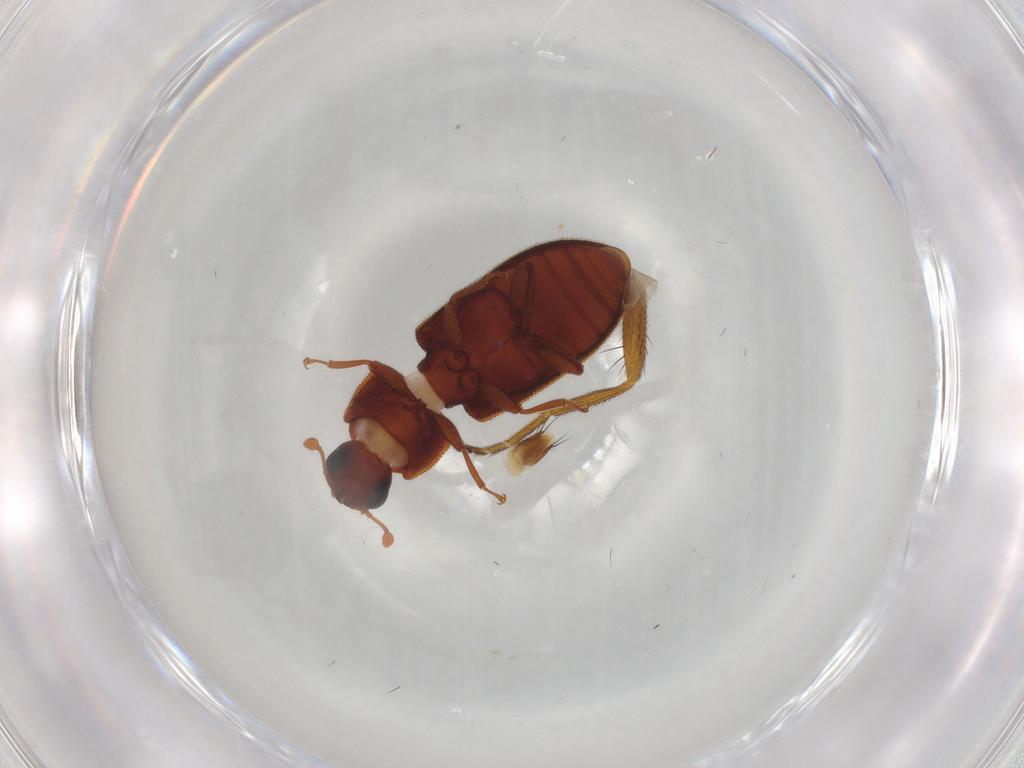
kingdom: Animalia
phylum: Arthropoda
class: Insecta
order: Coleoptera
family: Zopheridae
